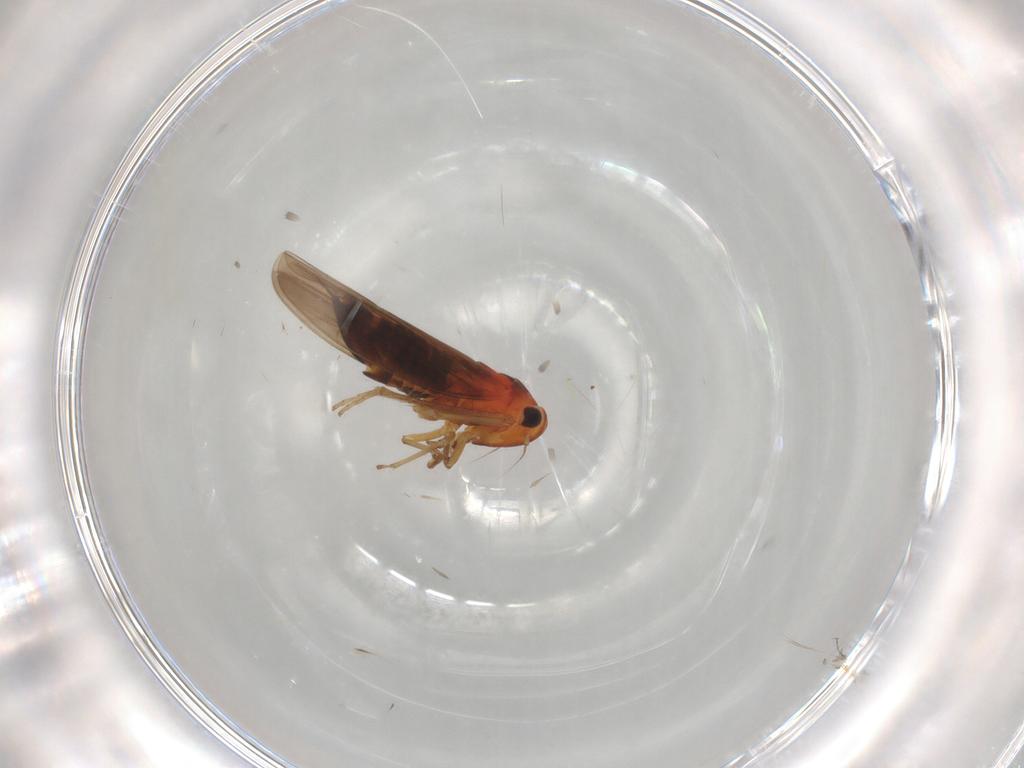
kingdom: Animalia
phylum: Arthropoda
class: Insecta
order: Hemiptera
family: Cicadellidae
